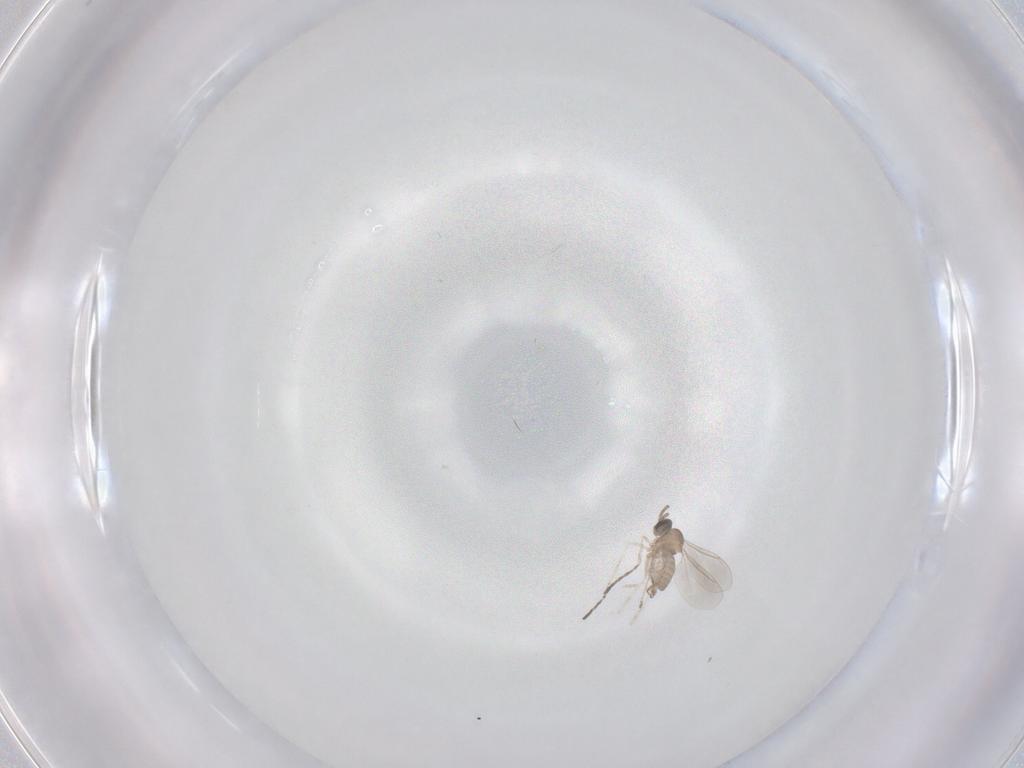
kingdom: Animalia
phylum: Arthropoda
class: Insecta
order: Diptera
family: Cecidomyiidae
